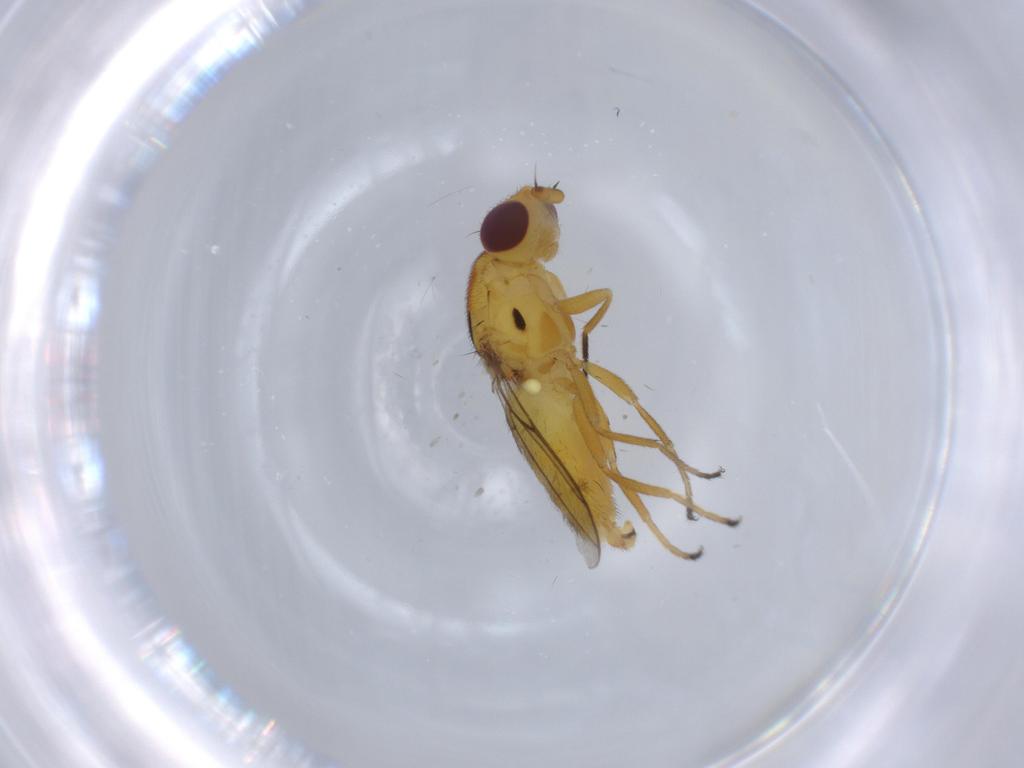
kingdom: Animalia
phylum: Arthropoda
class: Insecta
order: Diptera
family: Chloropidae
